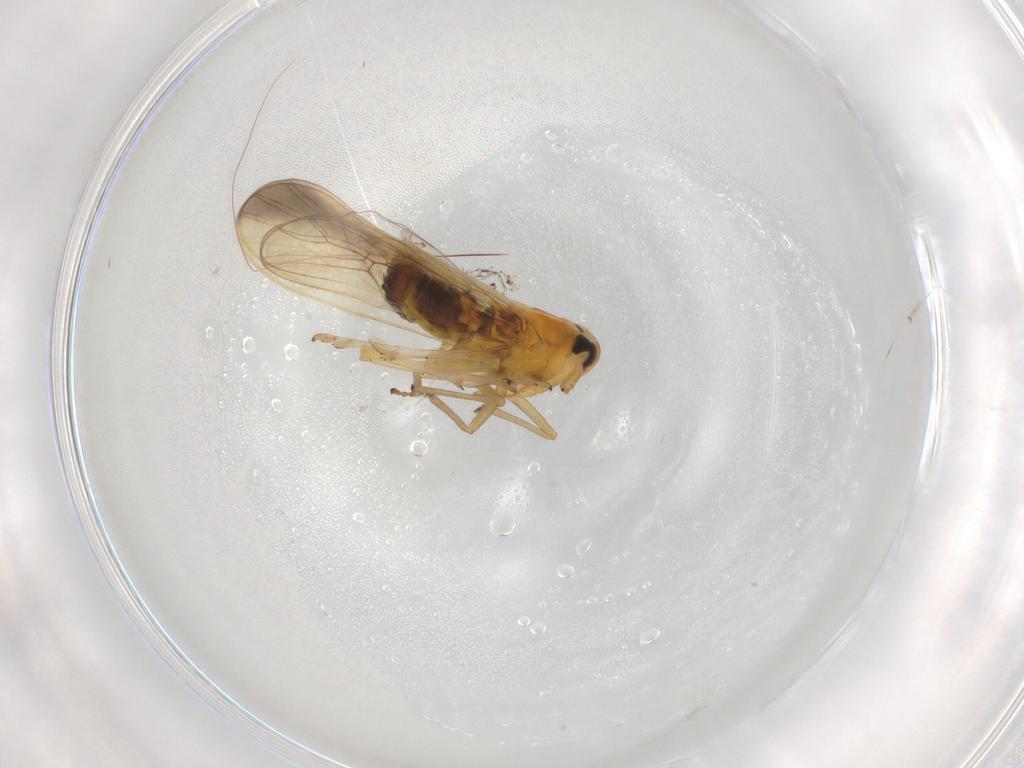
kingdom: Animalia
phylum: Arthropoda
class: Insecta
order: Hemiptera
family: Delphacidae
